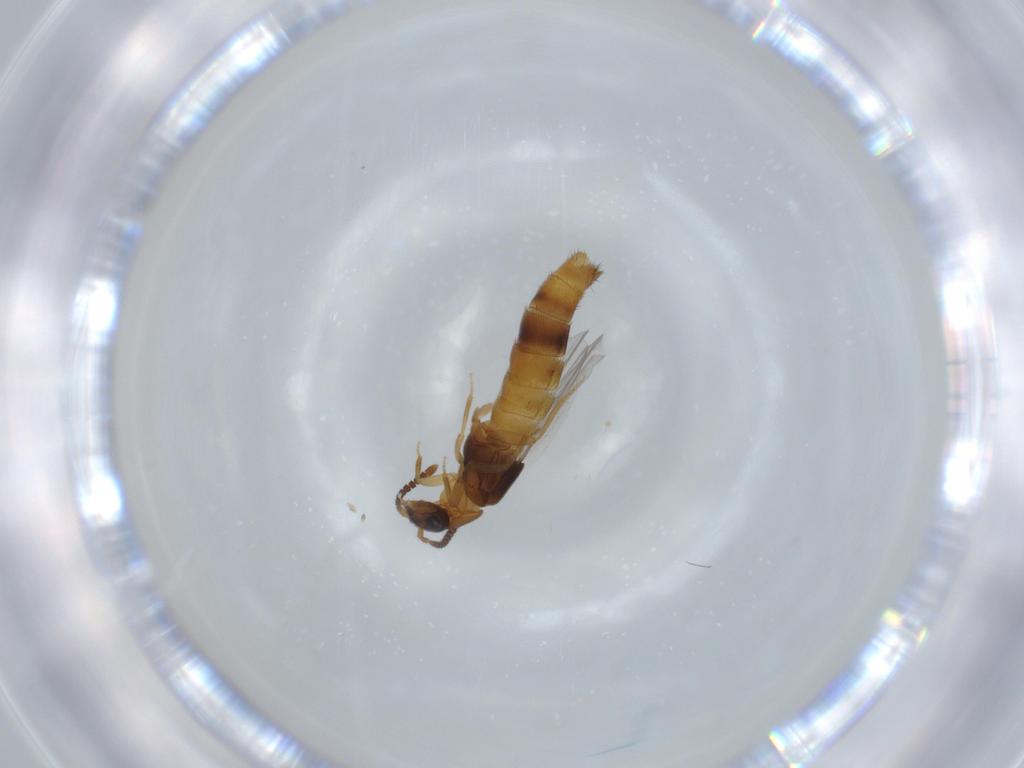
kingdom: Animalia
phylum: Arthropoda
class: Insecta
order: Coleoptera
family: Staphylinidae
